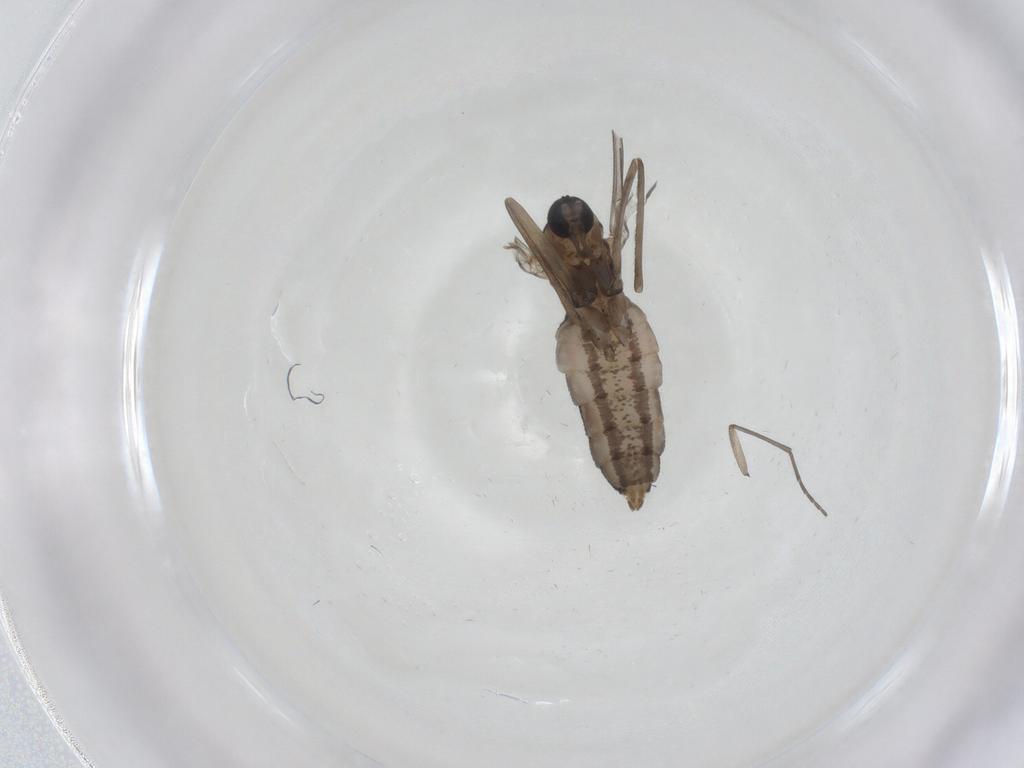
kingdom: Animalia
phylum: Arthropoda
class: Insecta
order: Diptera
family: Cecidomyiidae
